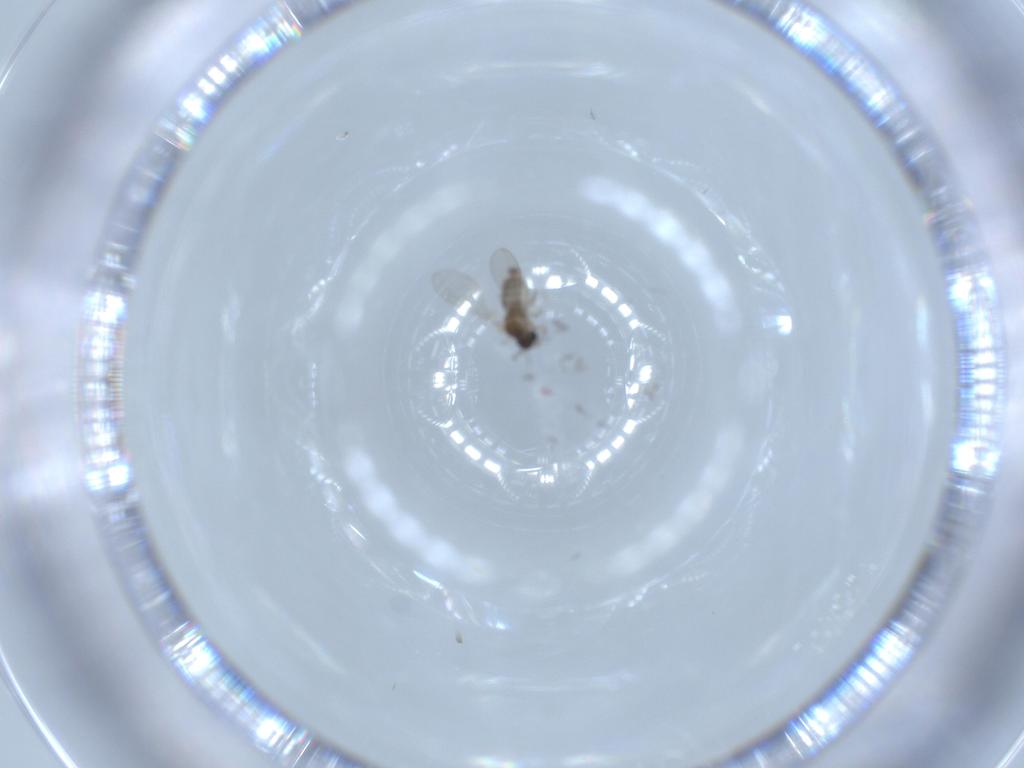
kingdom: Animalia
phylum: Arthropoda
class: Insecta
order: Diptera
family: Cecidomyiidae
